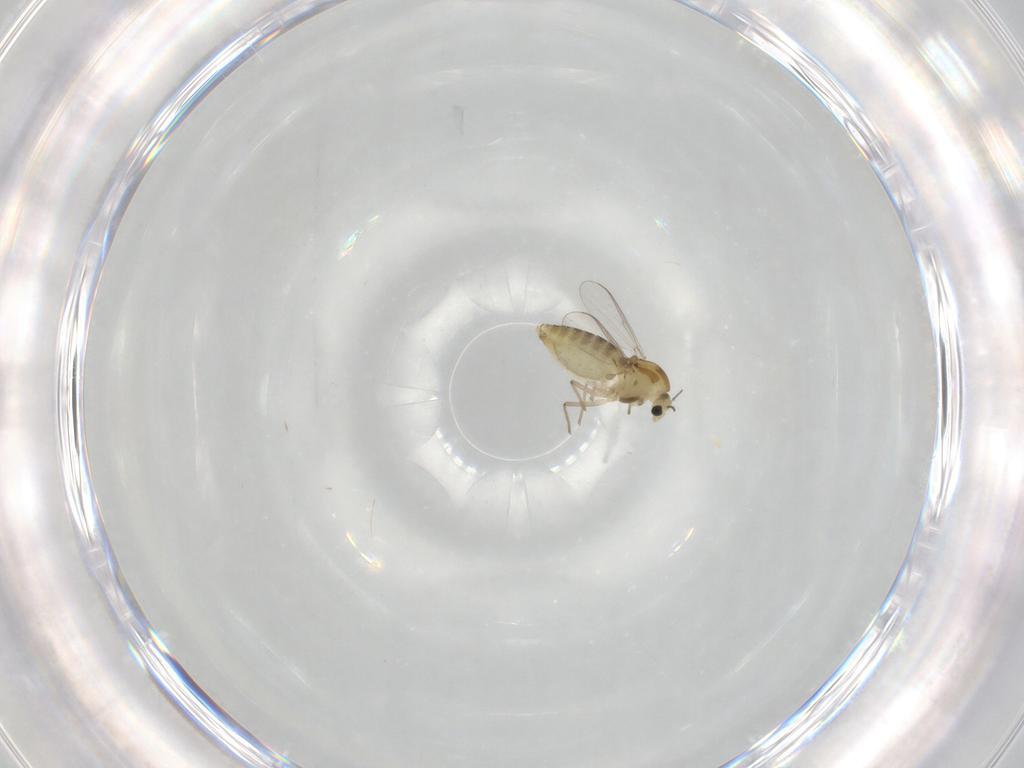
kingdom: Animalia
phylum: Arthropoda
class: Insecta
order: Diptera
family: Chironomidae
